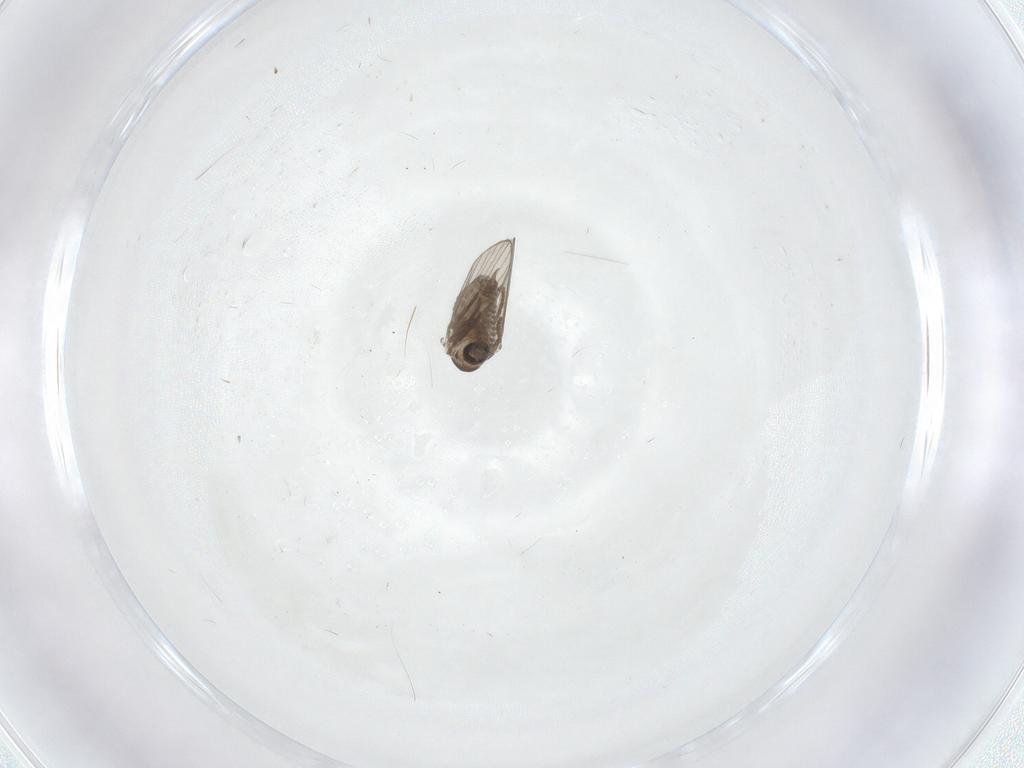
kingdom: Animalia
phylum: Arthropoda
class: Insecta
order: Diptera
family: Psychodidae
